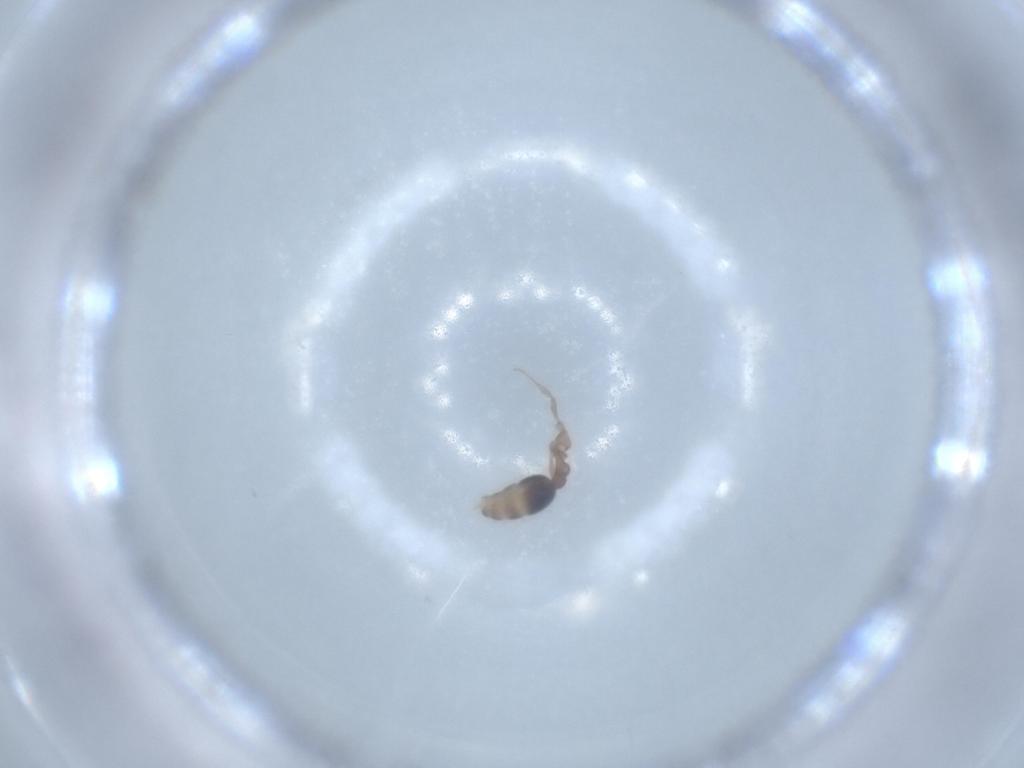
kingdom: Animalia
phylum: Arthropoda
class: Insecta
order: Hymenoptera
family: Formicidae
